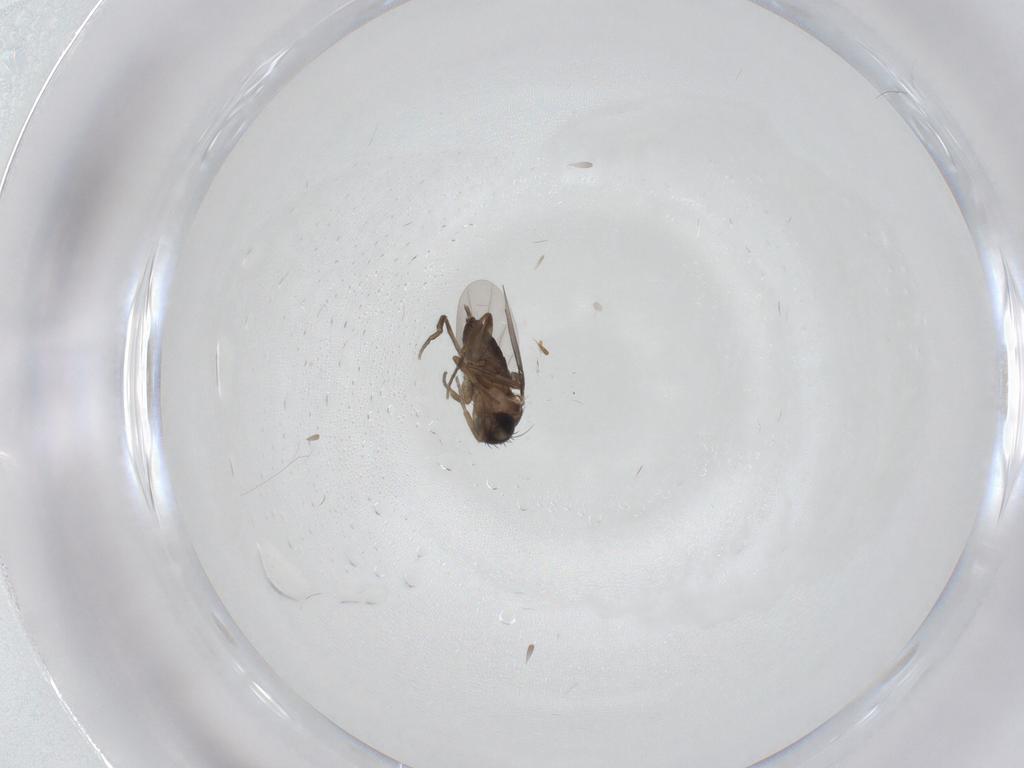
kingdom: Animalia
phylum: Arthropoda
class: Insecta
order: Diptera
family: Phoridae
